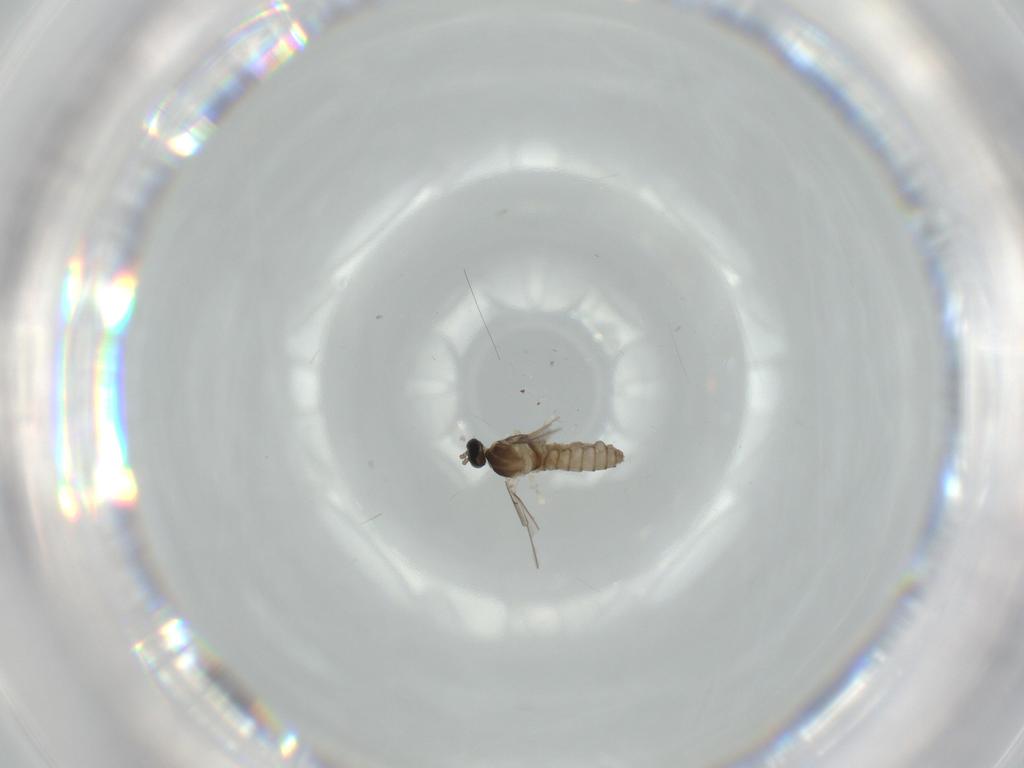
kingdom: Animalia
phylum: Arthropoda
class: Insecta
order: Diptera
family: Cecidomyiidae
